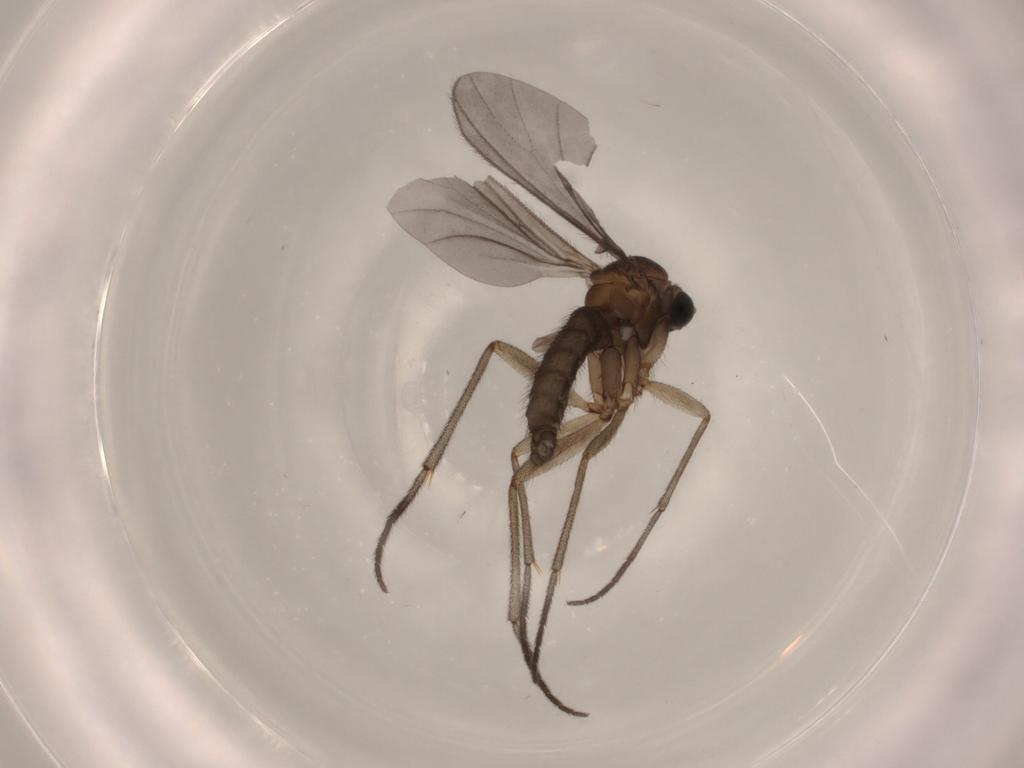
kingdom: Animalia
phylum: Arthropoda
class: Insecta
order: Diptera
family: Sciaridae
